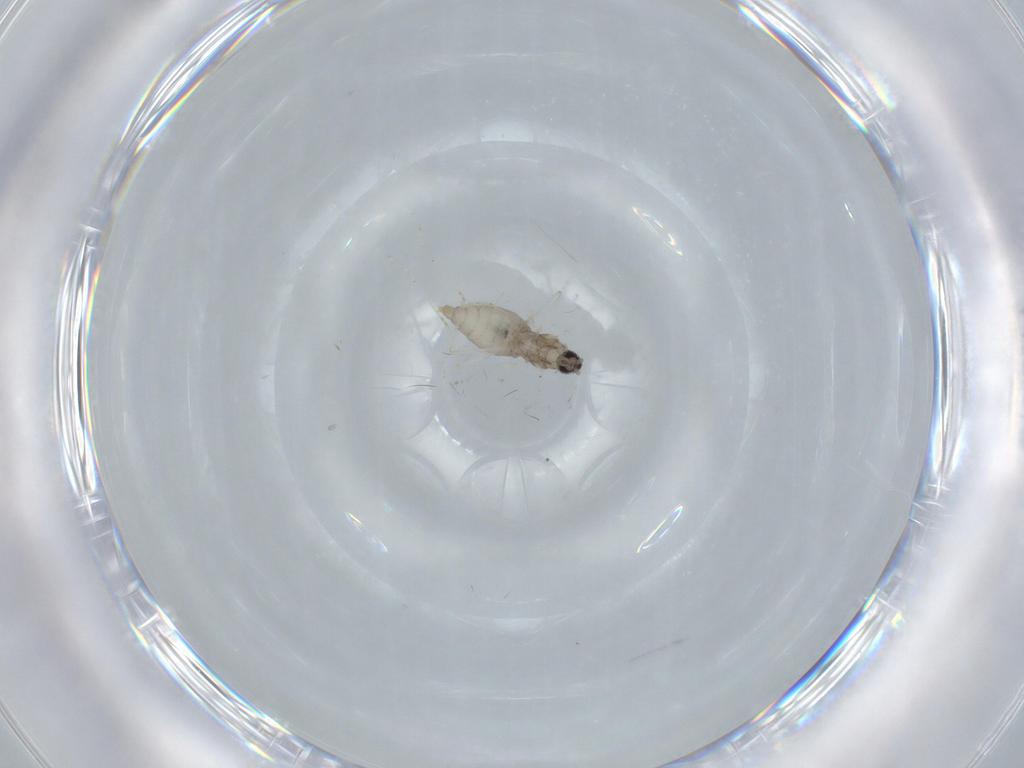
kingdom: Animalia
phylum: Arthropoda
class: Insecta
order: Diptera
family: Cecidomyiidae
